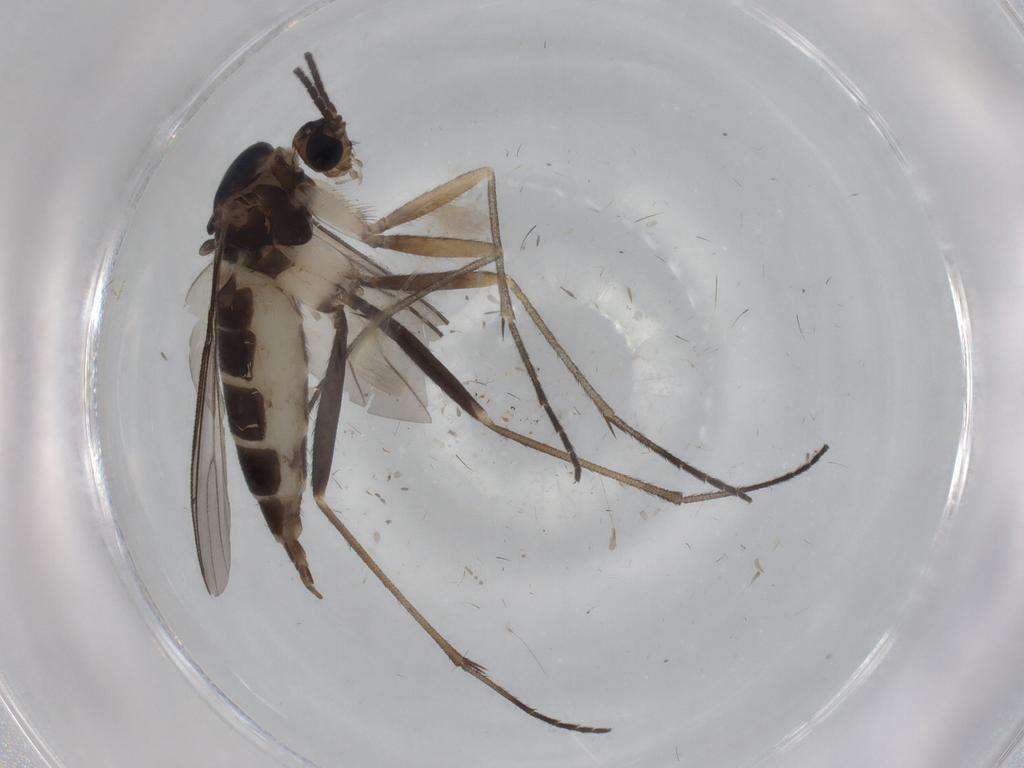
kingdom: Animalia
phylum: Arthropoda
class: Insecta
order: Diptera
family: Sciaridae
